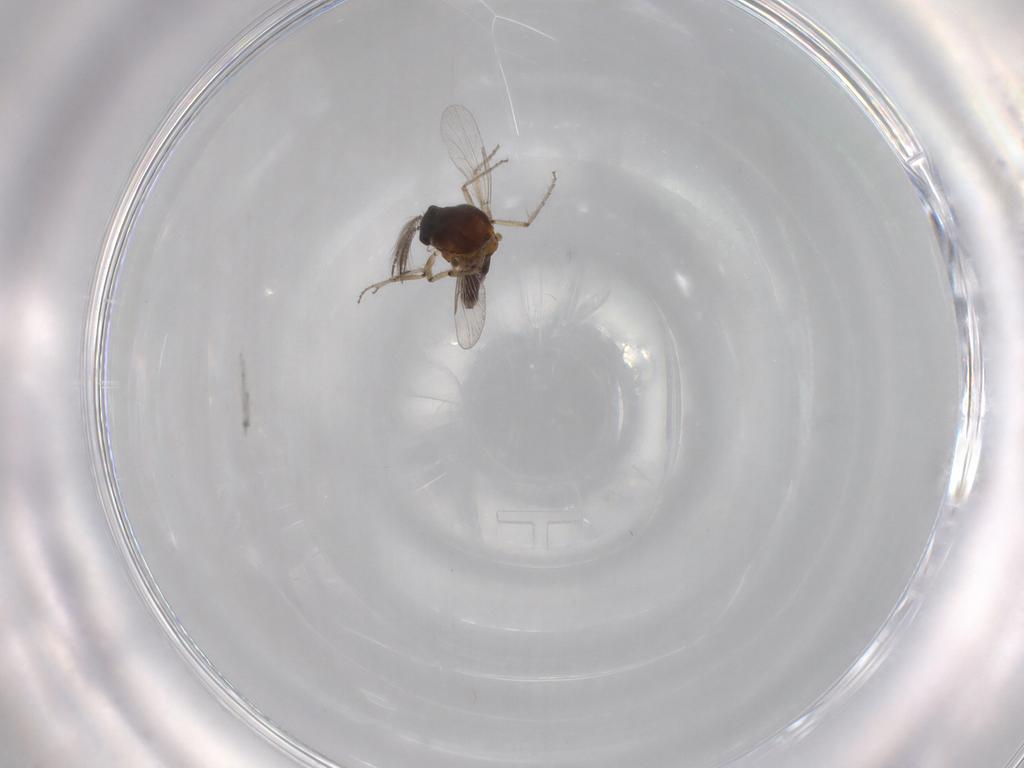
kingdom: Animalia
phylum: Arthropoda
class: Insecta
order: Diptera
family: Ceratopogonidae
